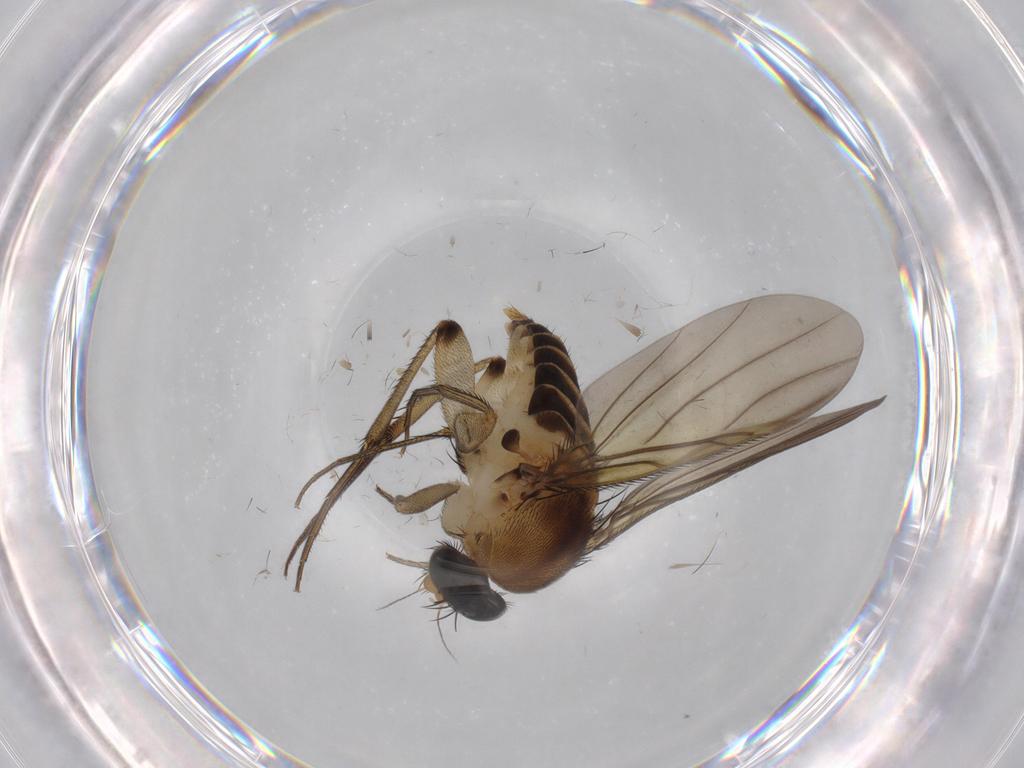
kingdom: Animalia
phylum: Arthropoda
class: Insecta
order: Diptera
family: Phoridae
